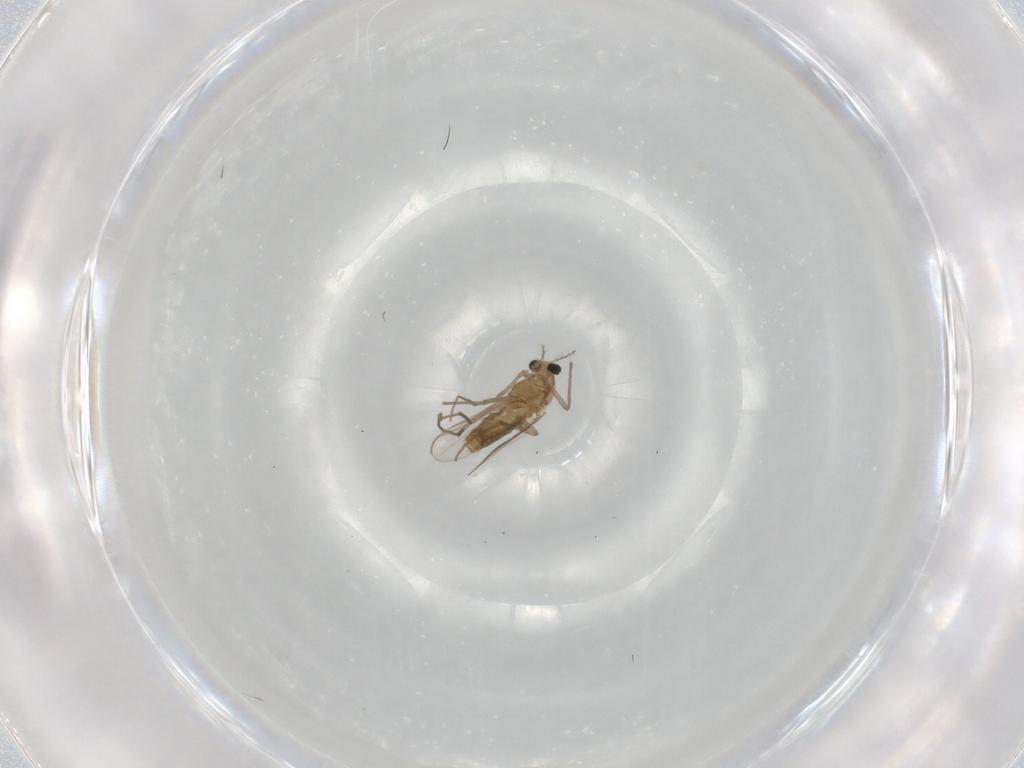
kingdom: Animalia
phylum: Arthropoda
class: Insecta
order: Diptera
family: Chironomidae
